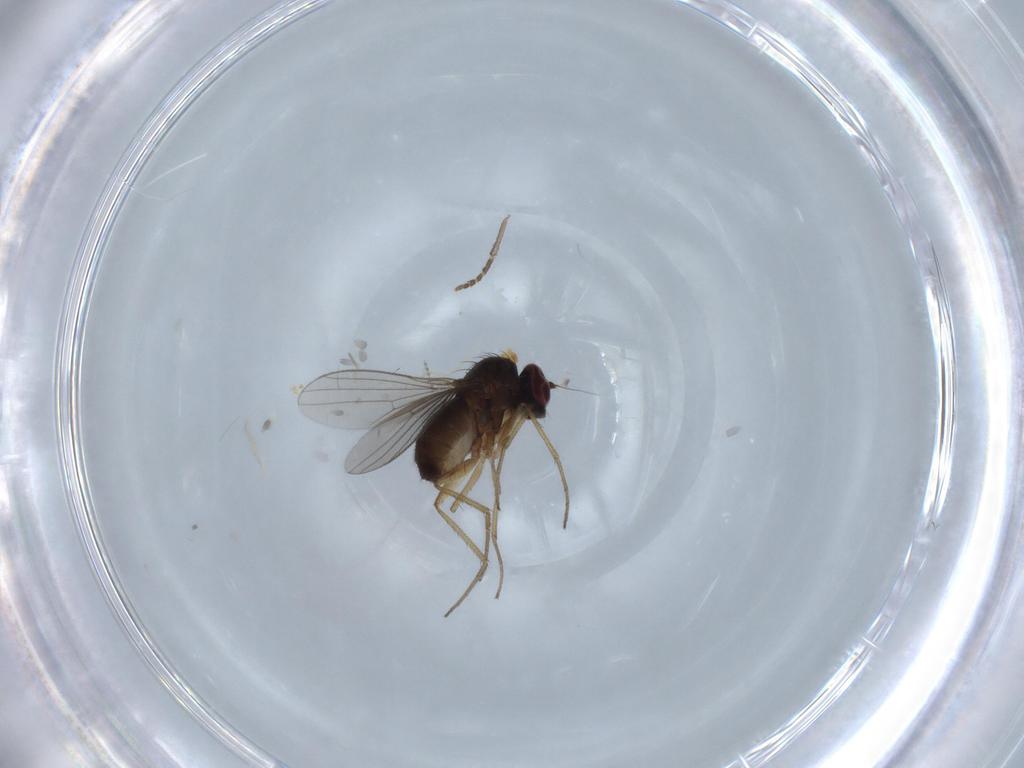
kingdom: Animalia
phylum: Arthropoda
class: Insecta
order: Diptera
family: Dolichopodidae
